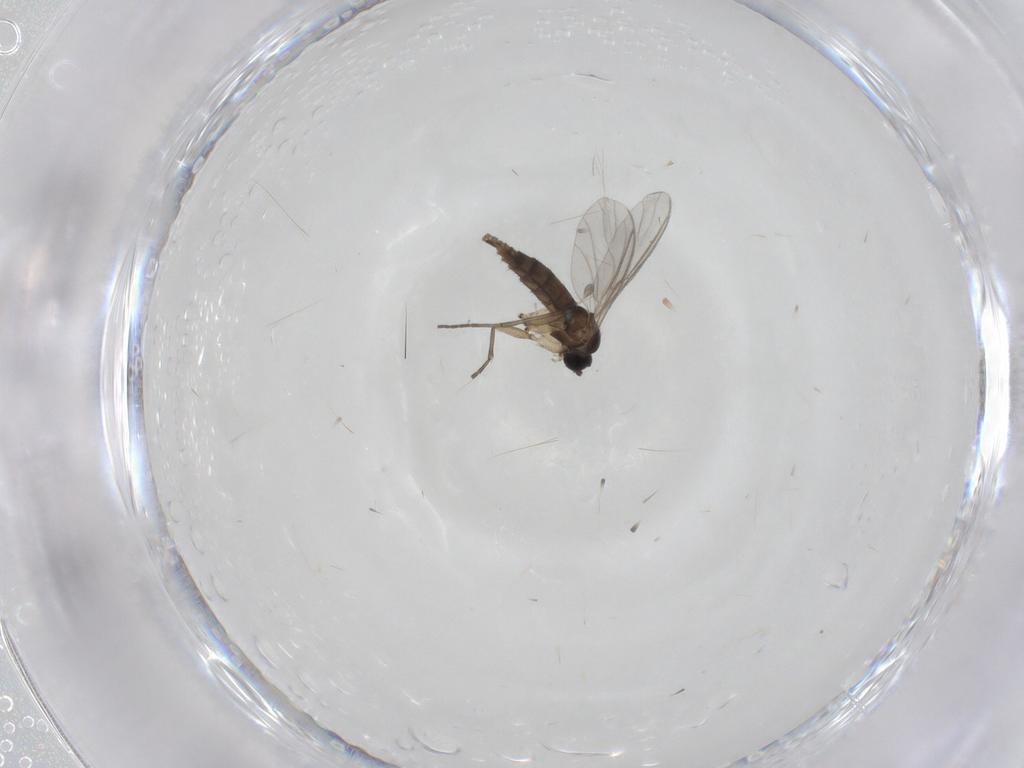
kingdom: Animalia
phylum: Arthropoda
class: Insecta
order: Diptera
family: Sciaridae
